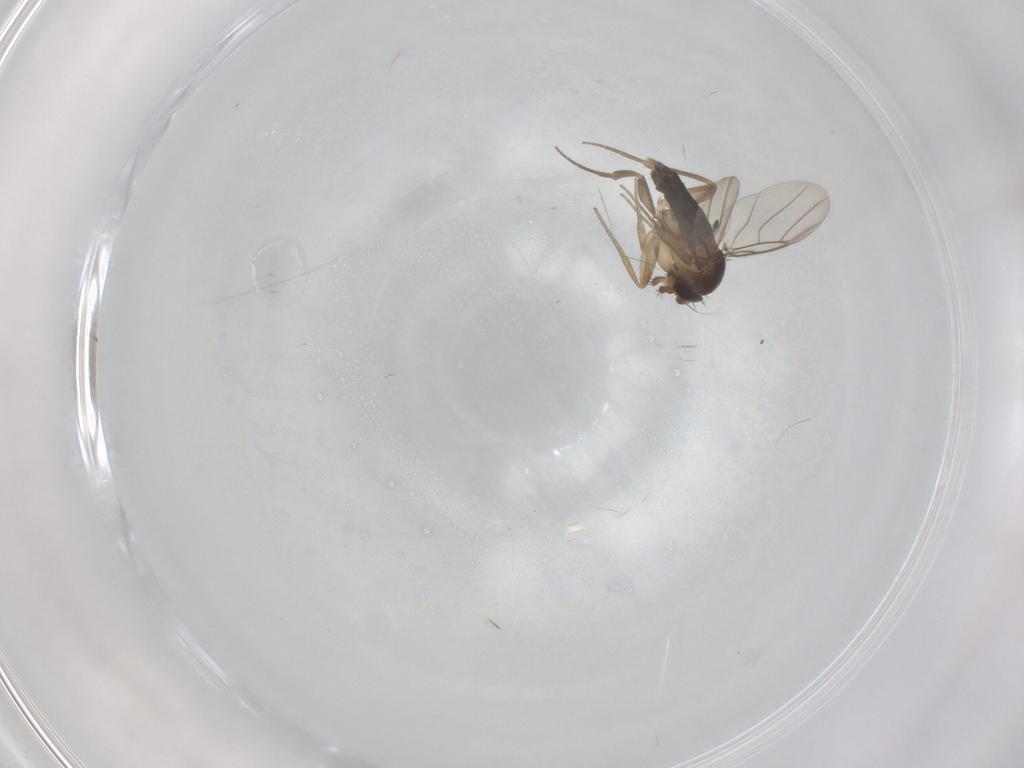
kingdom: Animalia
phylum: Arthropoda
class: Insecta
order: Diptera
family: Phoridae
